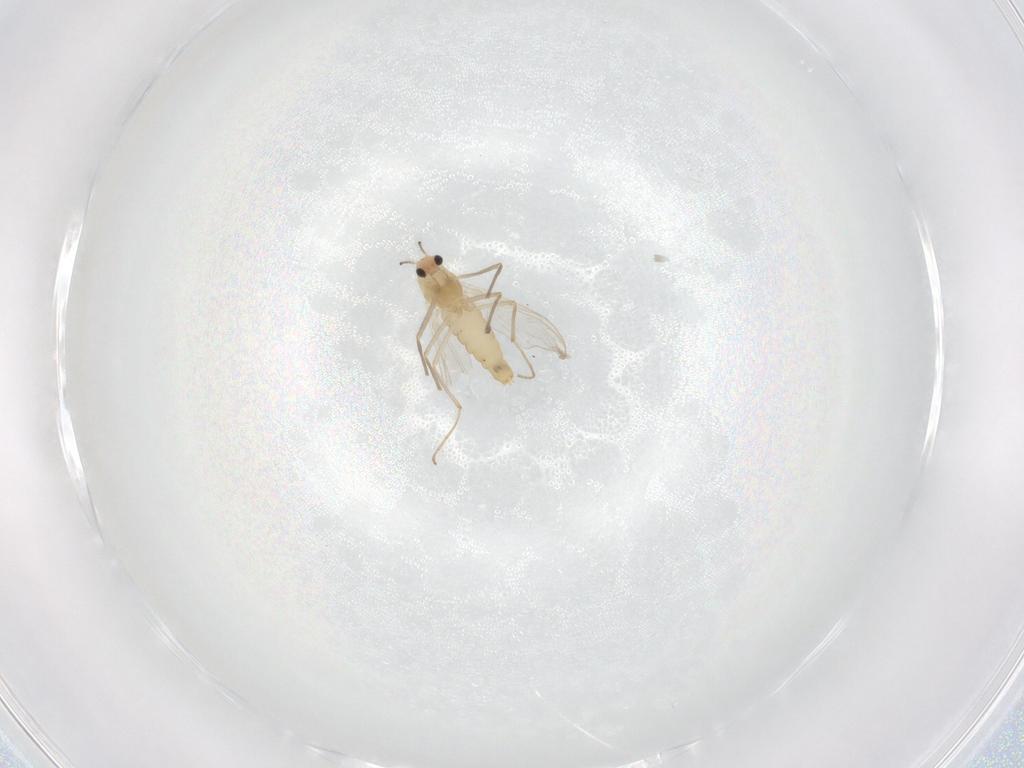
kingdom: Animalia
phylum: Arthropoda
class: Insecta
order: Diptera
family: Chironomidae
